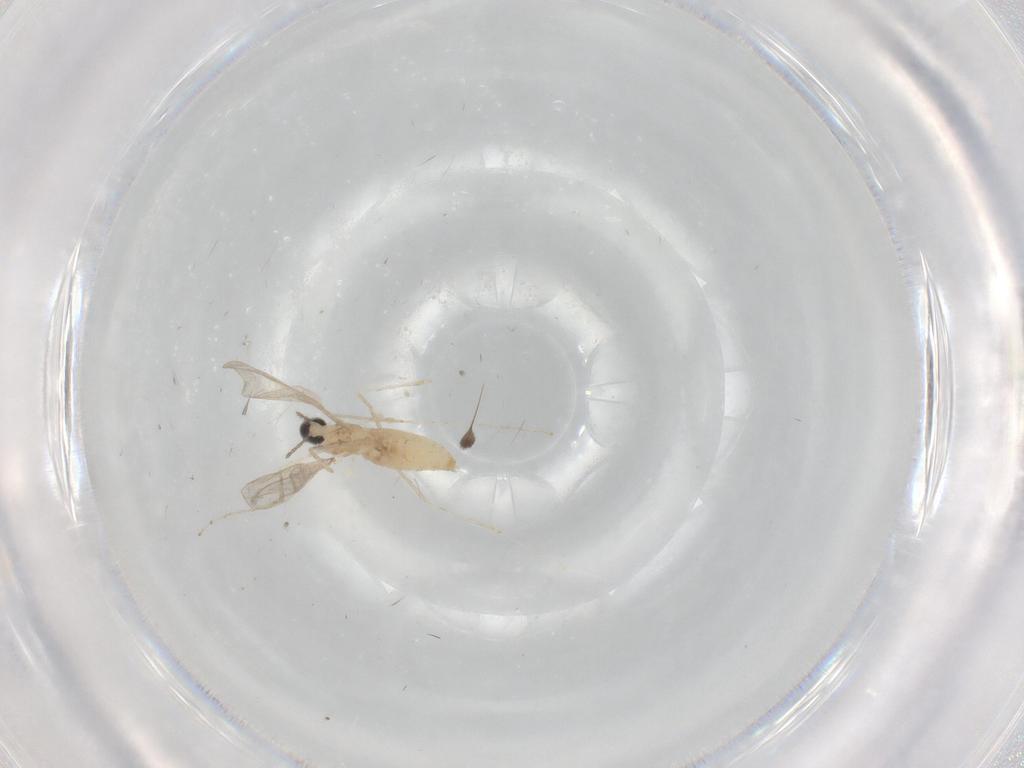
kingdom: Animalia
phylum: Arthropoda
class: Insecta
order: Diptera
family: Cecidomyiidae
